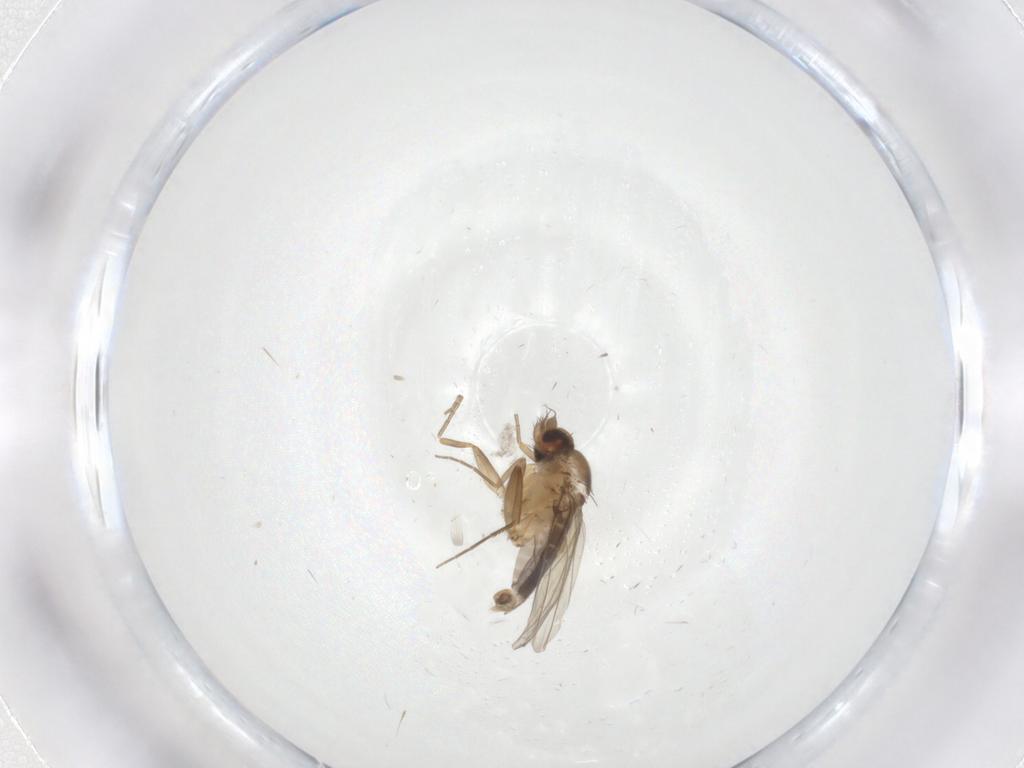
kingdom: Animalia
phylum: Arthropoda
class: Insecta
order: Diptera
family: Phoridae
